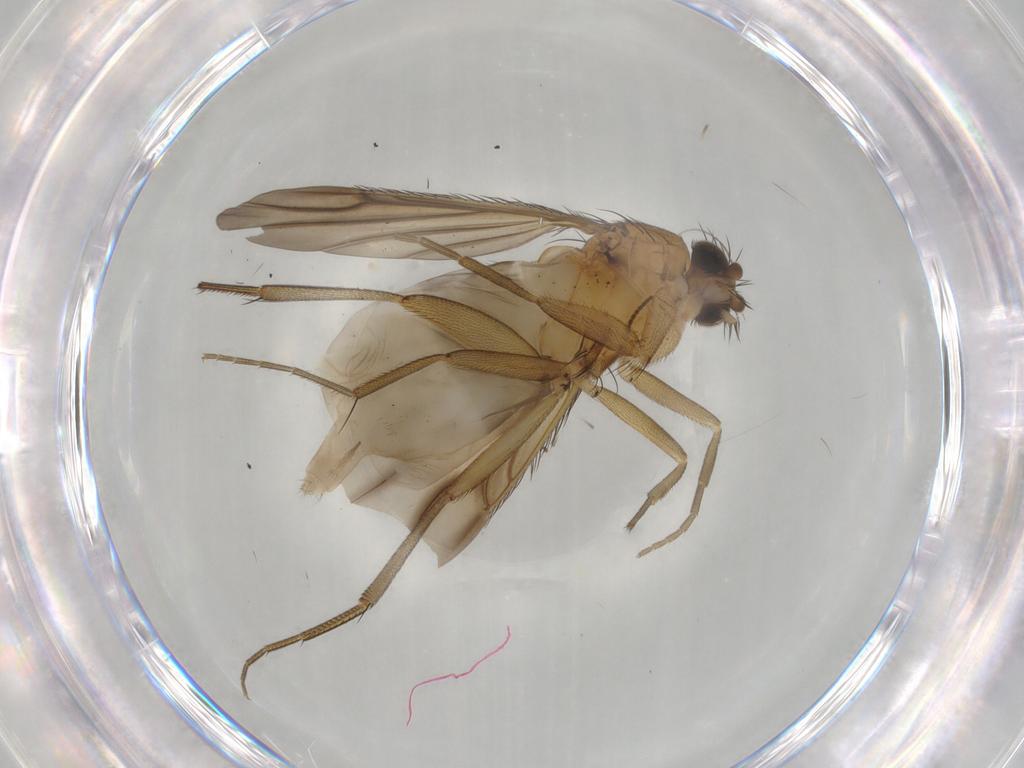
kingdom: Animalia
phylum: Arthropoda
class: Insecta
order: Diptera
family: Phoridae
